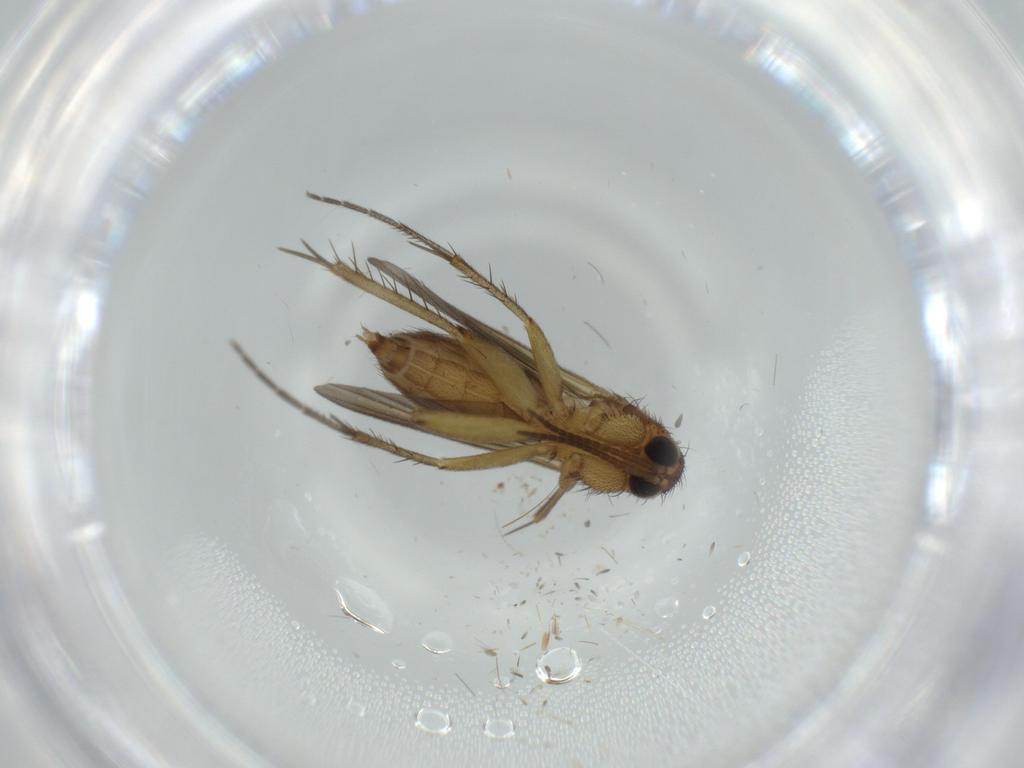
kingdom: Animalia
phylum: Arthropoda
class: Insecta
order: Diptera
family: Mycetophilidae
